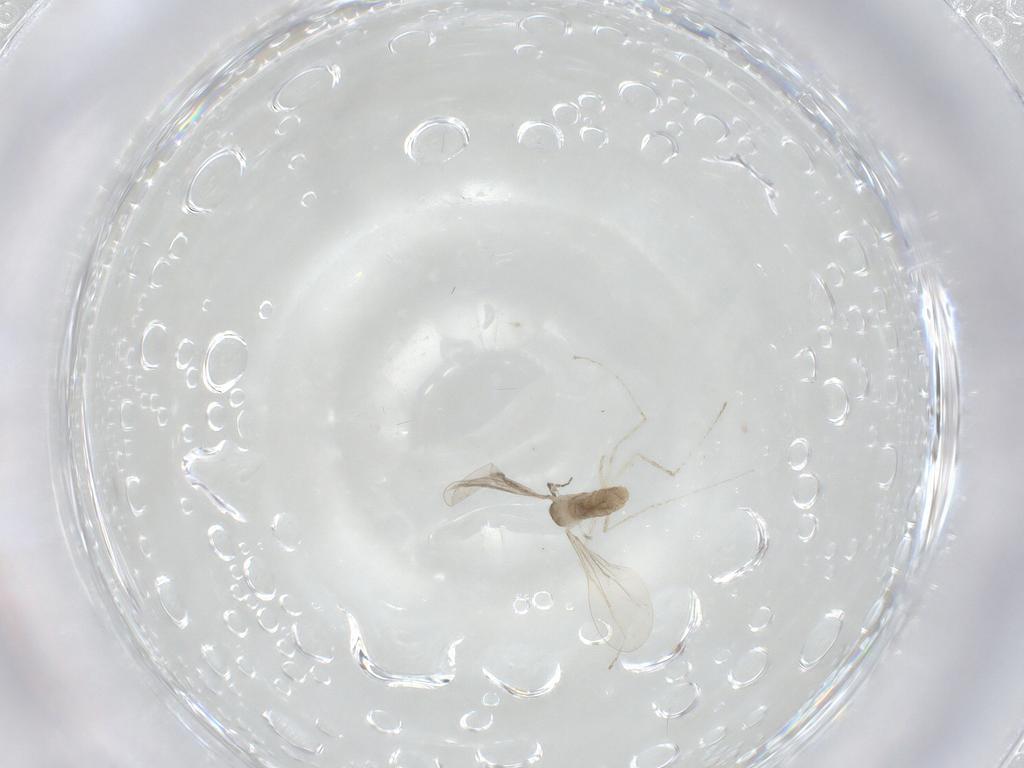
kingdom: Animalia
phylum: Arthropoda
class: Insecta
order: Diptera
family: Cecidomyiidae
